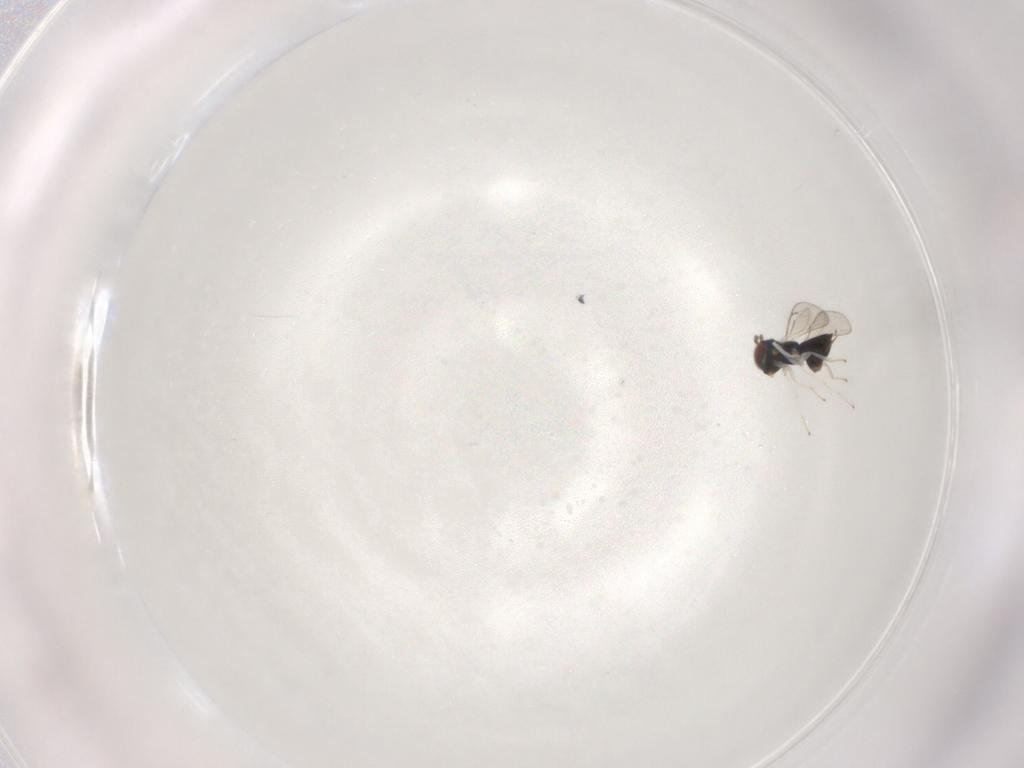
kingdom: Animalia
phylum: Arthropoda
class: Insecta
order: Hymenoptera
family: Eulophidae
